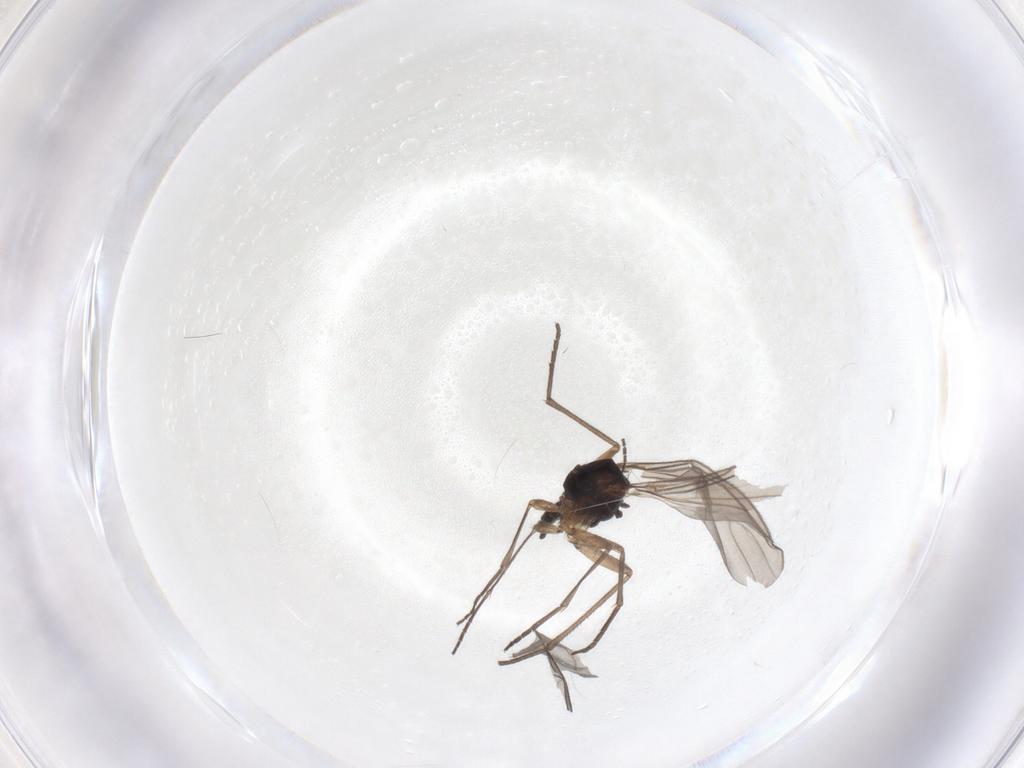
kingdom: Animalia
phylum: Arthropoda
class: Insecta
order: Diptera
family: Sciaridae
